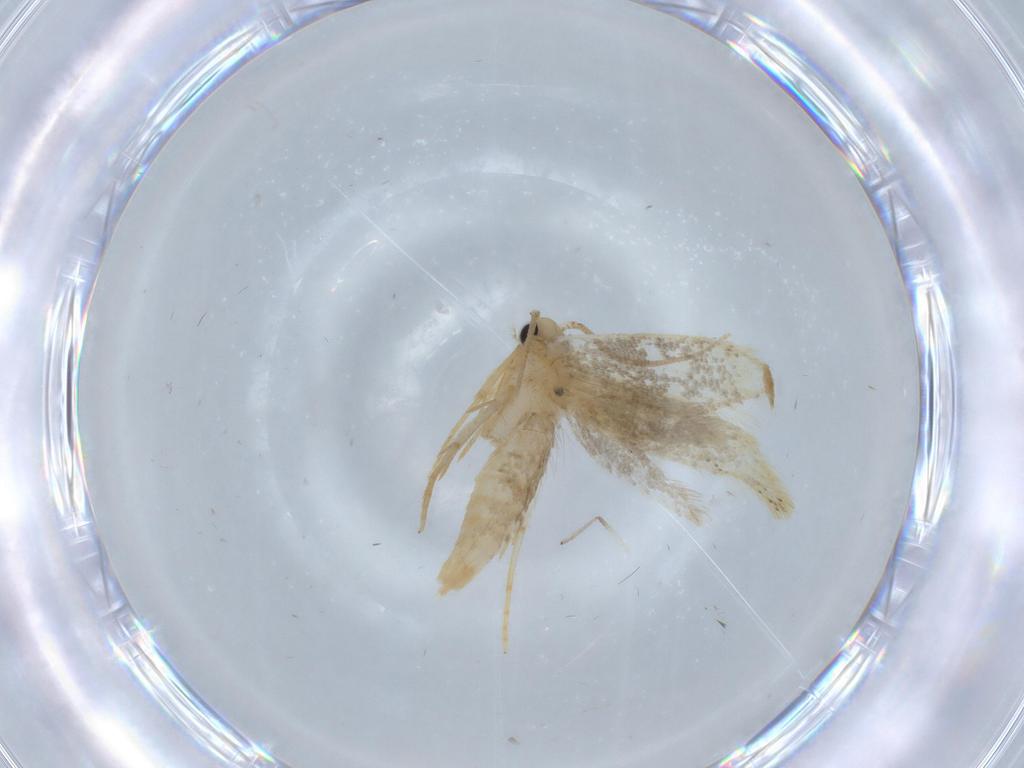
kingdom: Animalia
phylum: Arthropoda
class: Insecta
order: Lepidoptera
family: Tineidae
